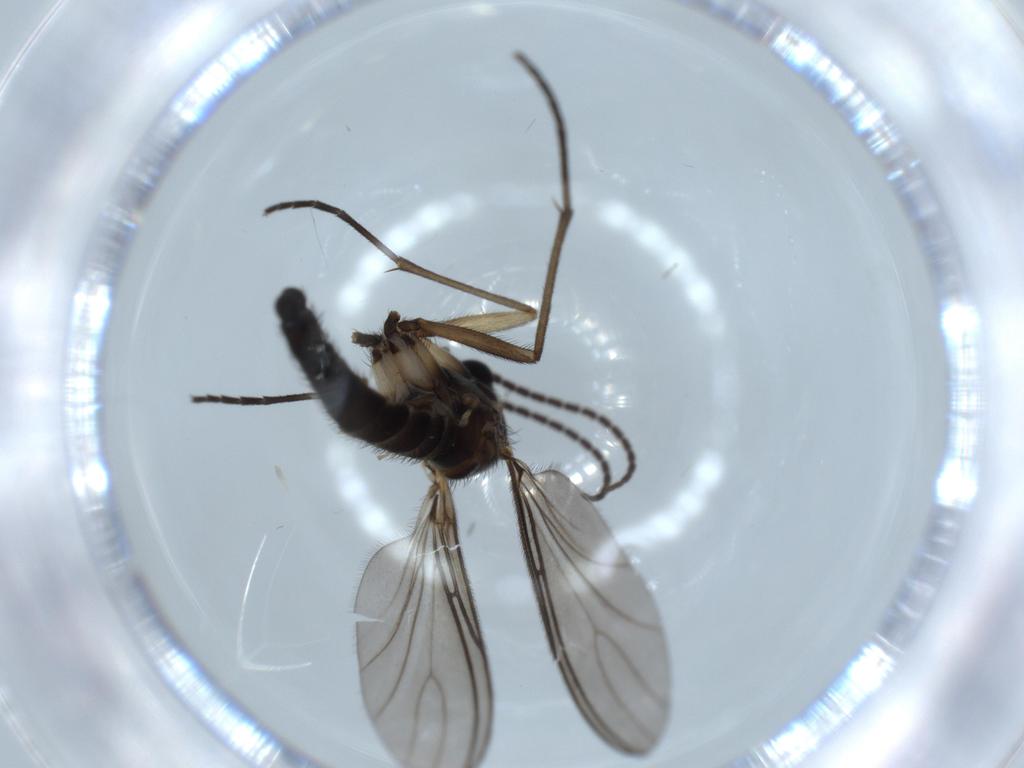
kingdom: Animalia
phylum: Arthropoda
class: Insecta
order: Diptera
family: Sciaridae
